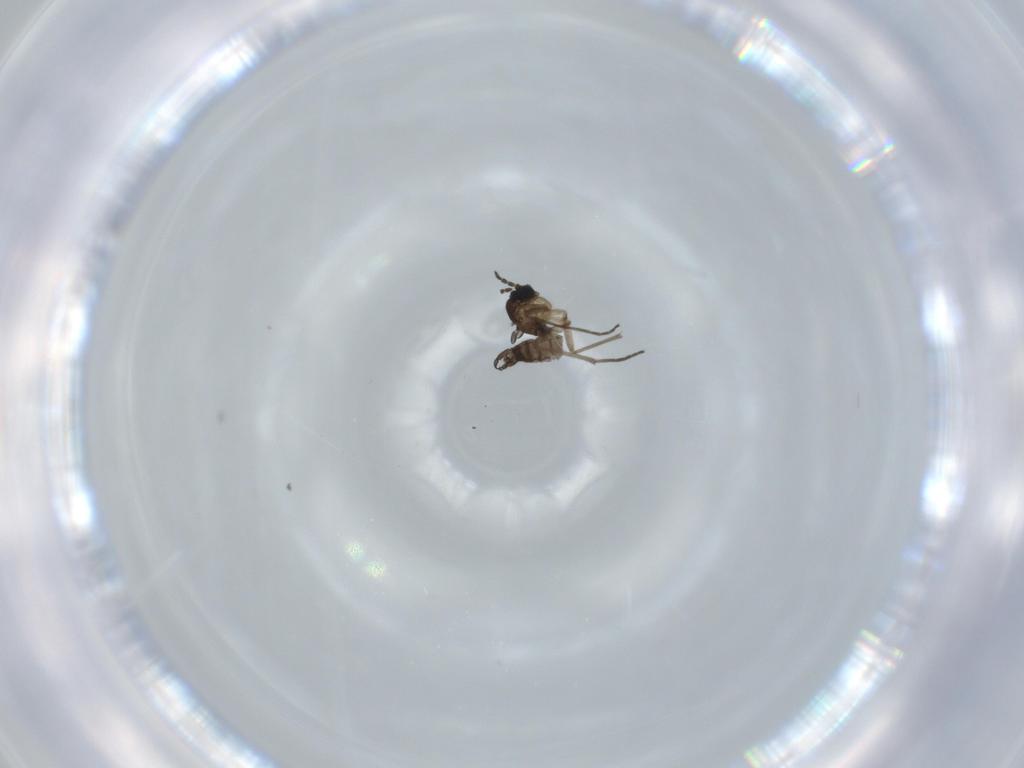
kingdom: Animalia
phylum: Arthropoda
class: Insecta
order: Diptera
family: Sciaridae
